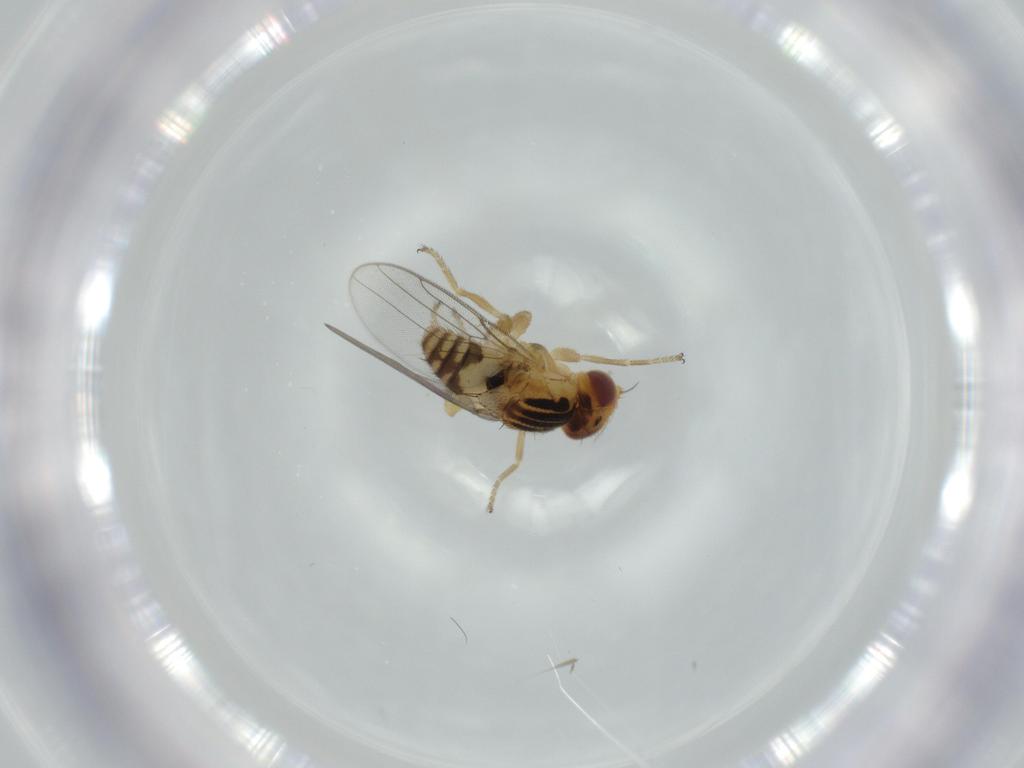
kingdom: Animalia
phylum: Arthropoda
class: Insecta
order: Diptera
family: Chloropidae
